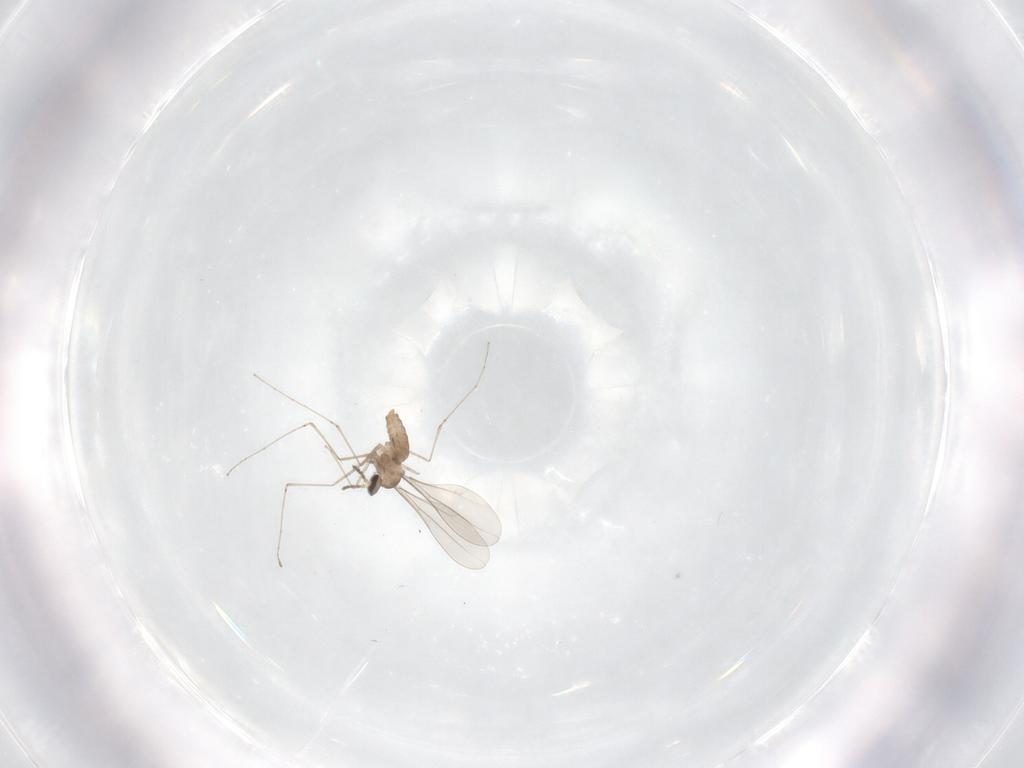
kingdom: Animalia
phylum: Arthropoda
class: Insecta
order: Diptera
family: Cecidomyiidae
